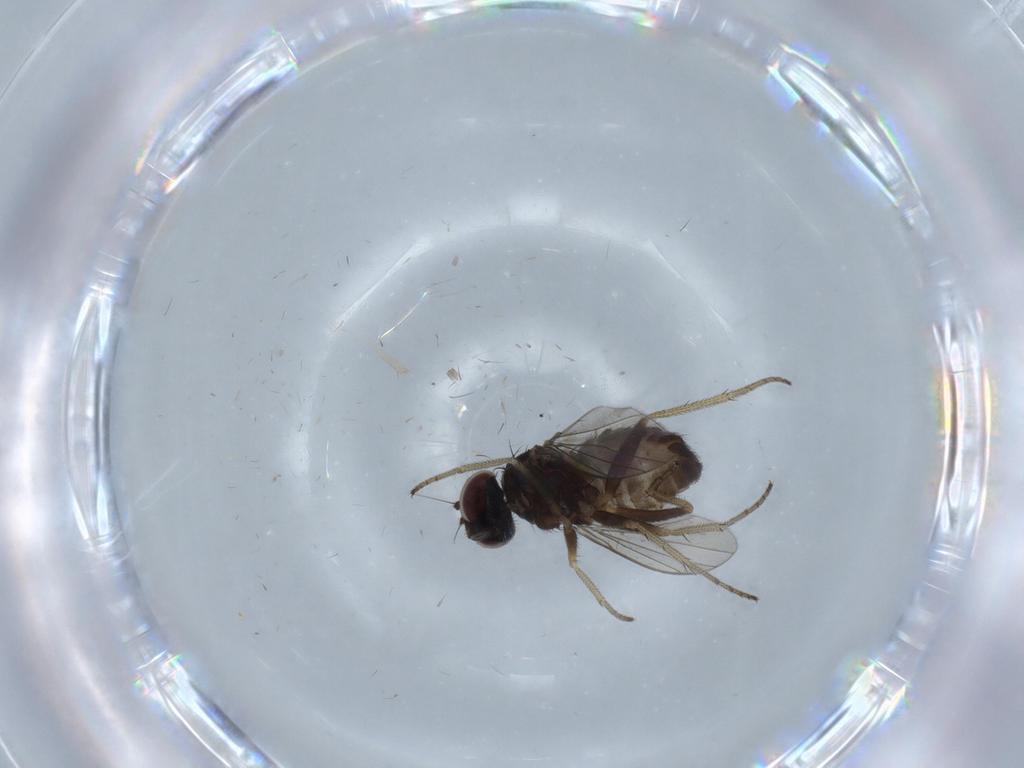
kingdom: Animalia
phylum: Arthropoda
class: Insecta
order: Diptera
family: Dolichopodidae
